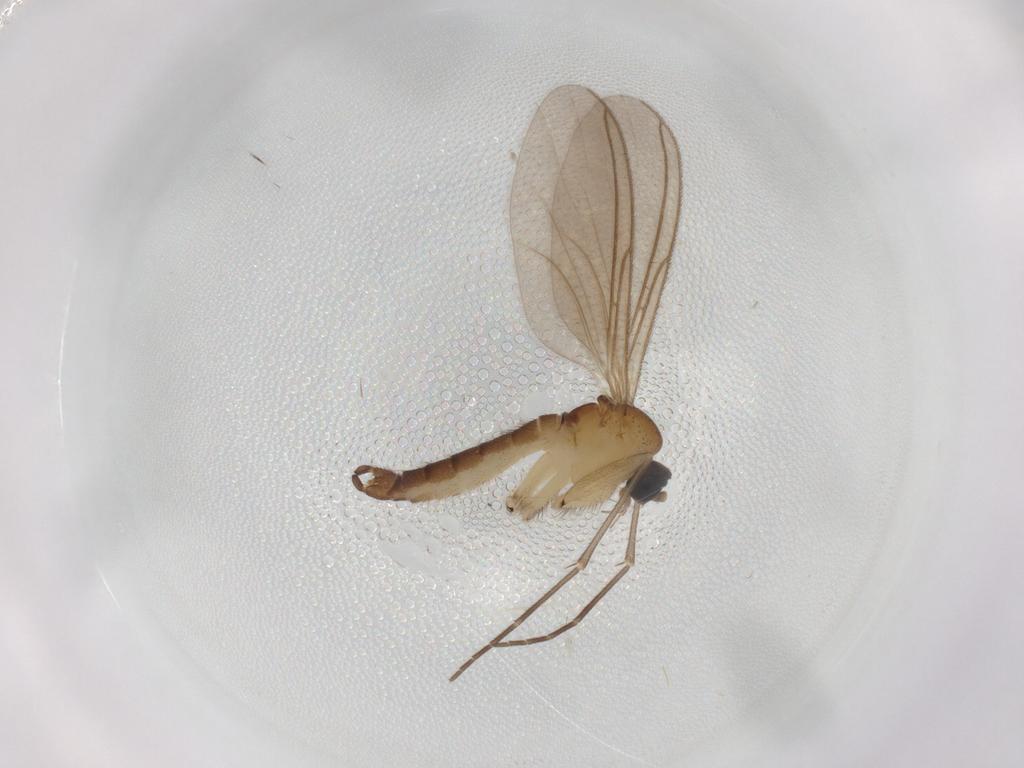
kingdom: Animalia
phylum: Arthropoda
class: Insecta
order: Diptera
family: Sciaridae
